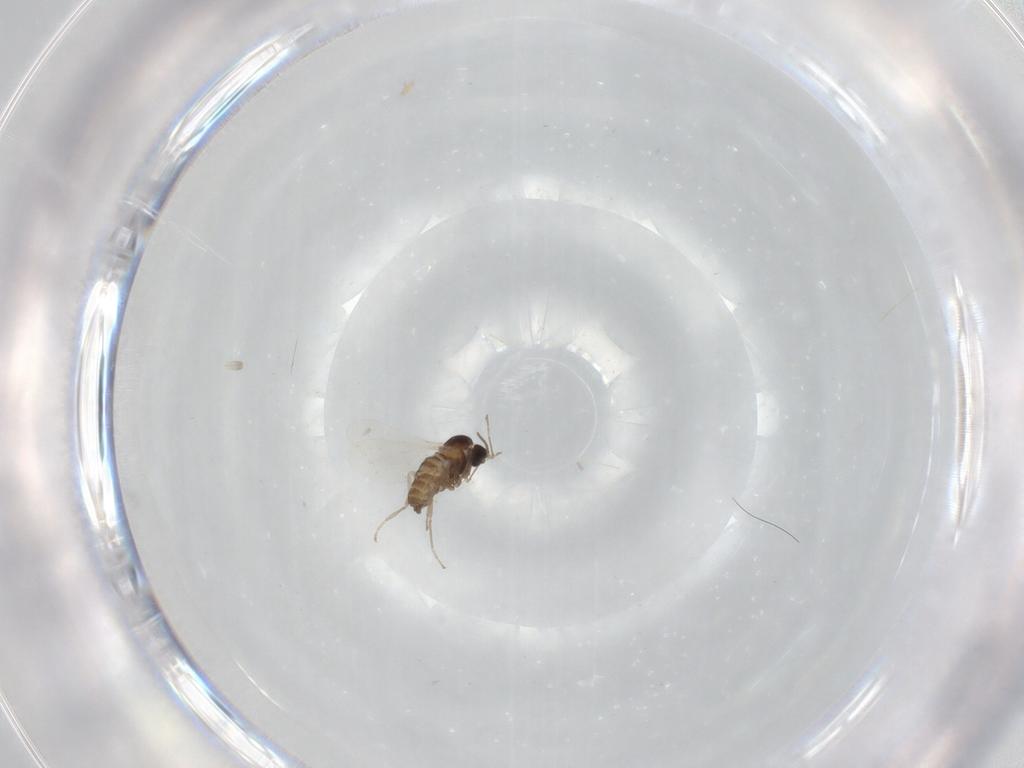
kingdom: Animalia
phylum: Arthropoda
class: Insecta
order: Diptera
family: Cecidomyiidae
